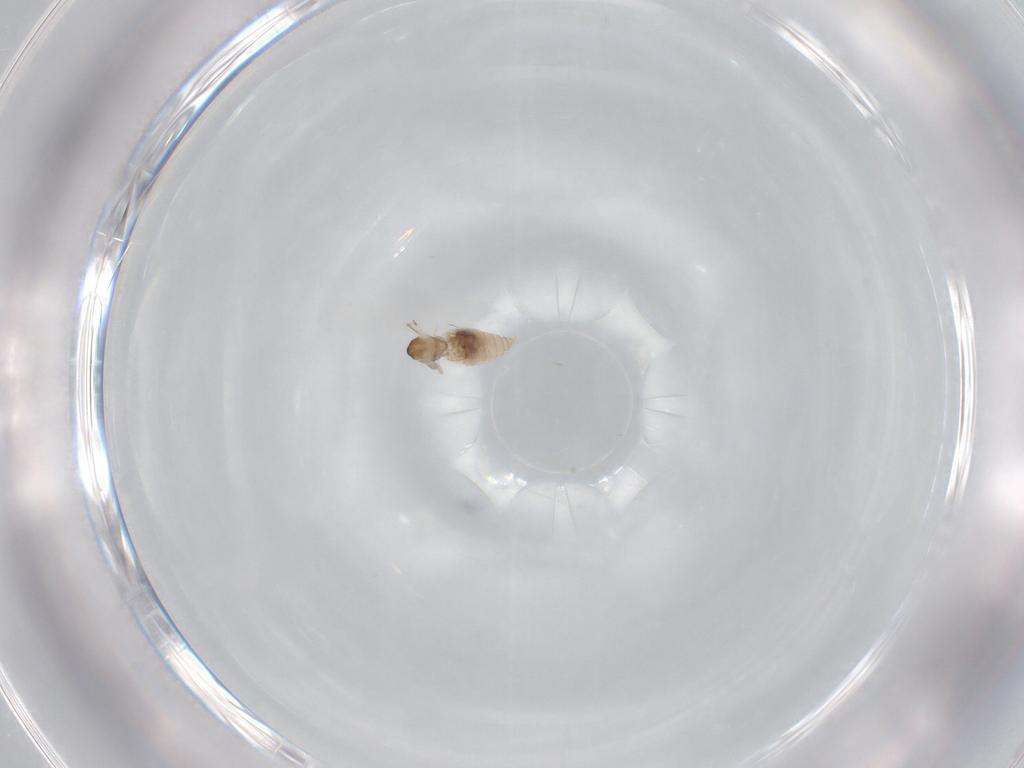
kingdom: Animalia
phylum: Arthropoda
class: Insecta
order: Diptera
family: Cecidomyiidae
